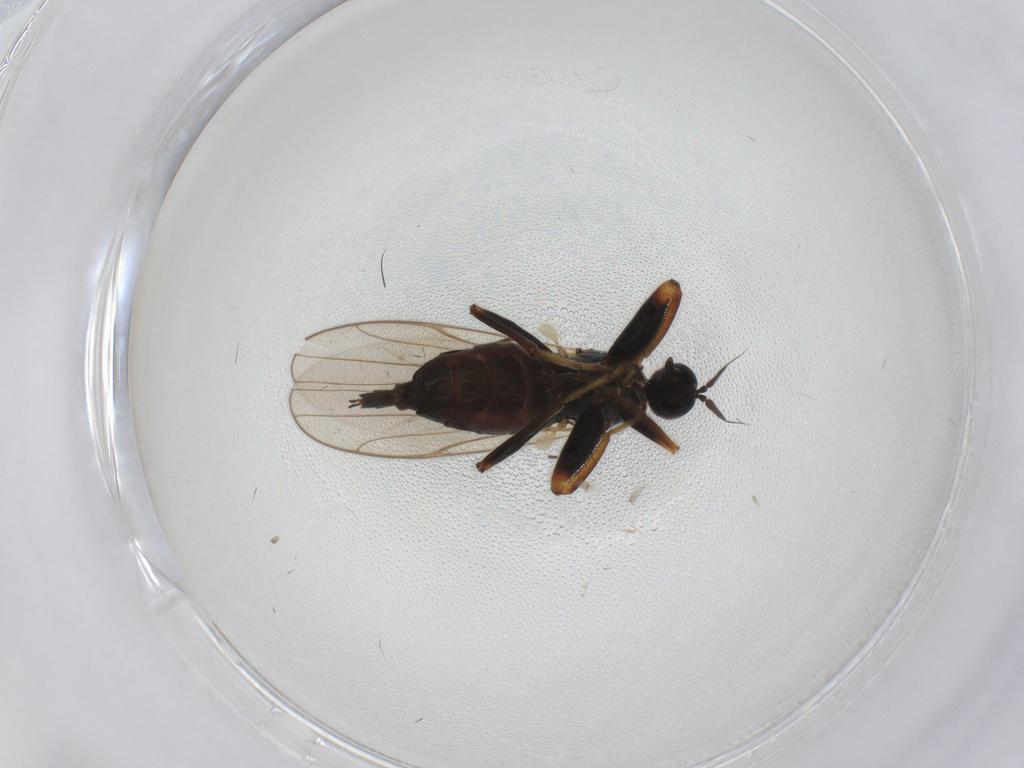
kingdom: Animalia
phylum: Arthropoda
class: Insecta
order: Diptera
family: Sciaridae
